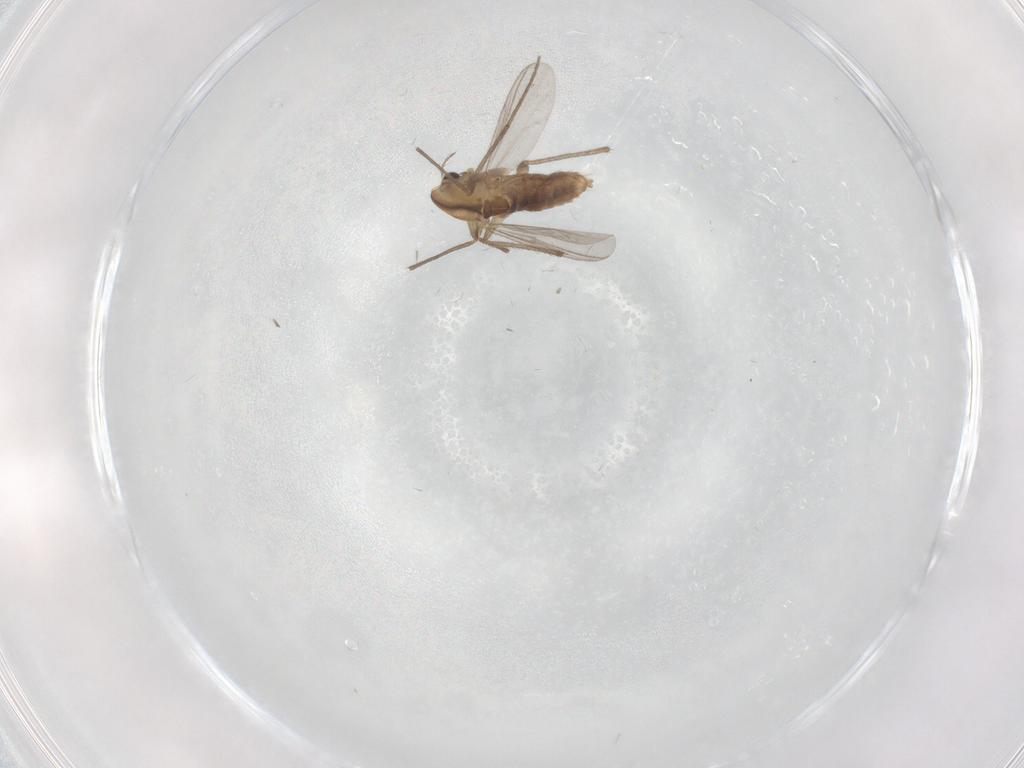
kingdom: Animalia
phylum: Arthropoda
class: Insecta
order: Diptera
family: Chironomidae
